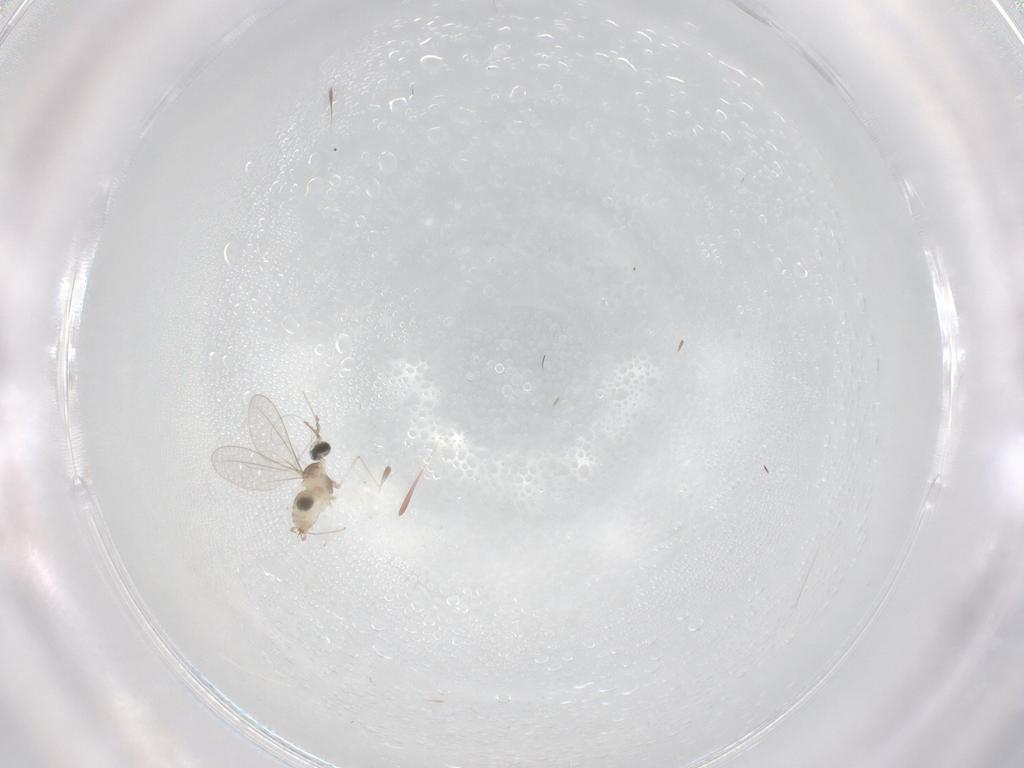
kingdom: Animalia
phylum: Arthropoda
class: Insecta
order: Diptera
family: Cecidomyiidae
